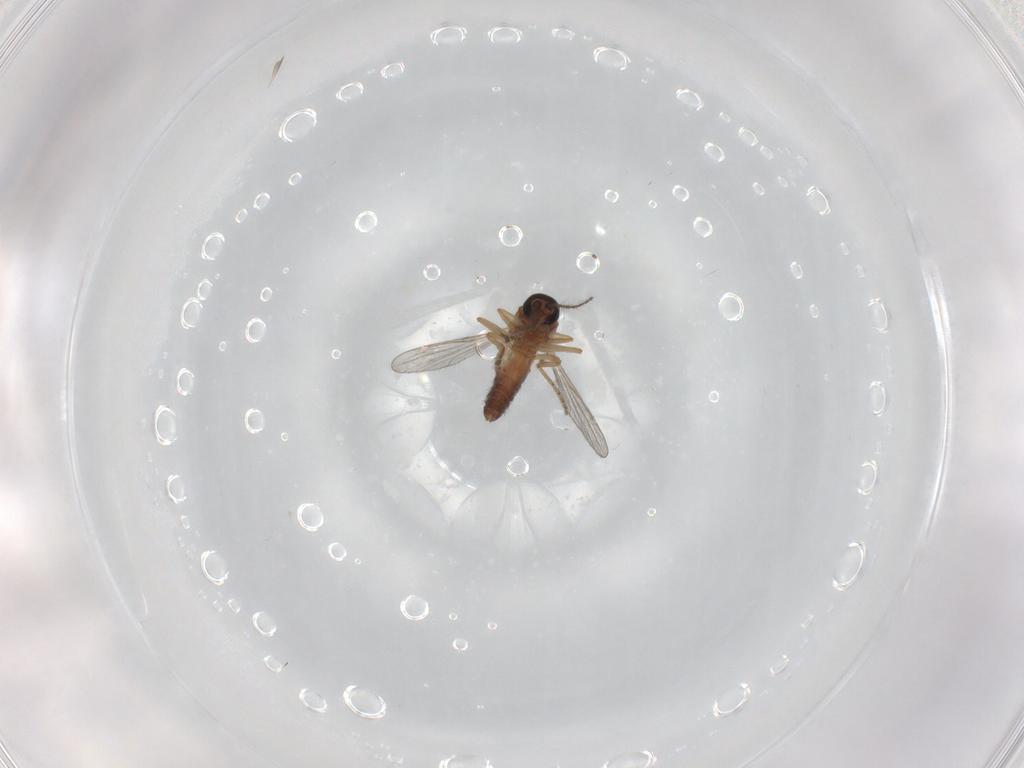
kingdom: Animalia
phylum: Arthropoda
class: Insecta
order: Diptera
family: Ceratopogonidae
